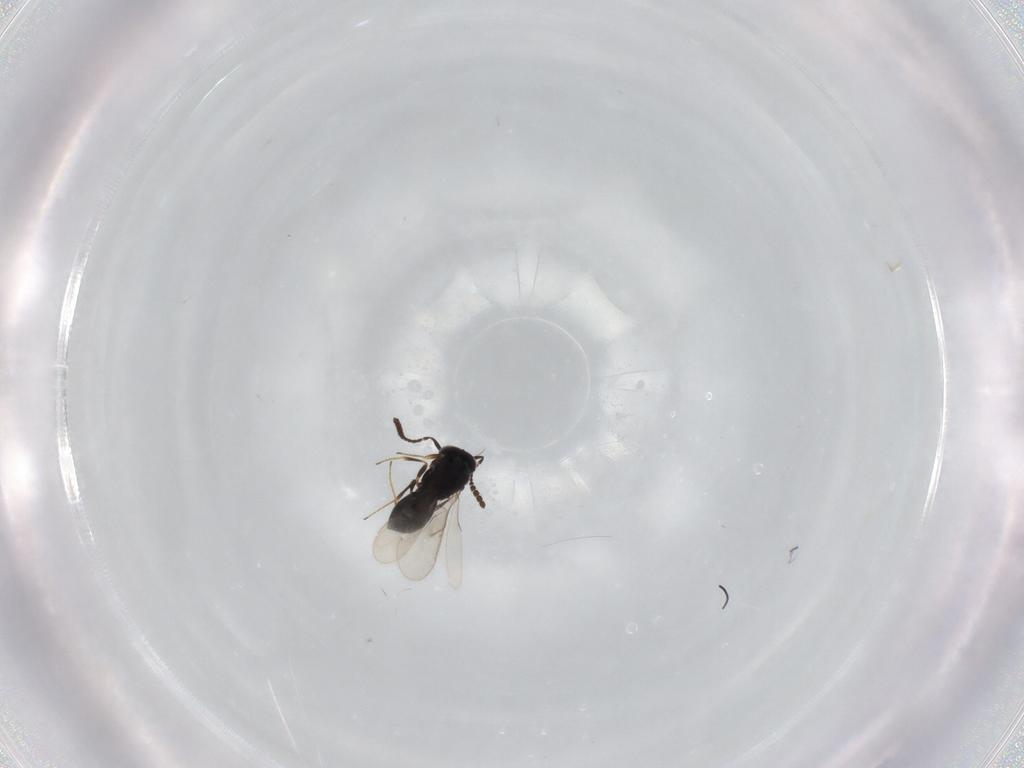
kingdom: Animalia
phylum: Arthropoda
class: Insecta
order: Hymenoptera
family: Scelionidae
